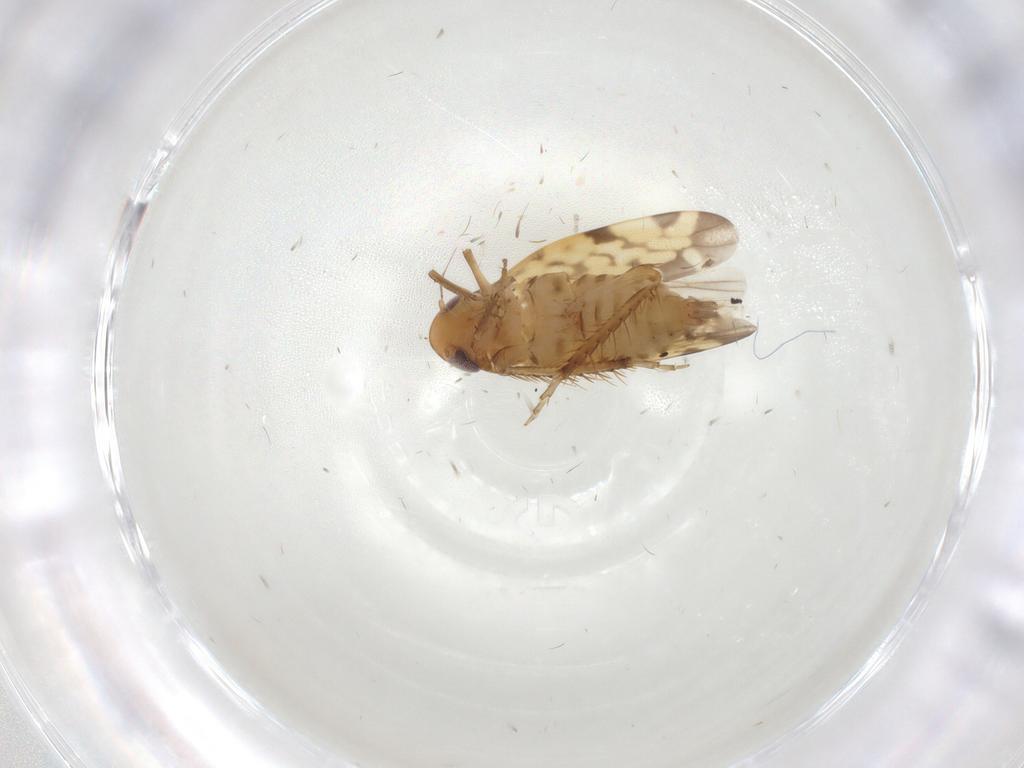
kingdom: Animalia
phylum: Arthropoda
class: Insecta
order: Hemiptera
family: Cicadellidae
